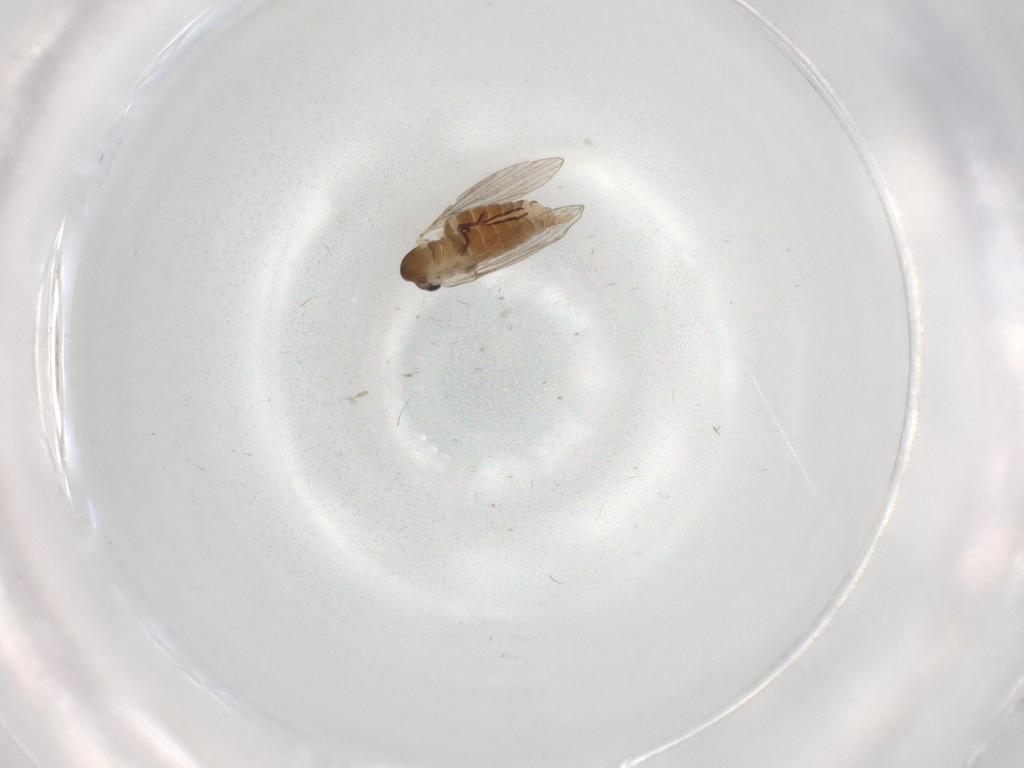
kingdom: Animalia
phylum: Arthropoda
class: Insecta
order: Diptera
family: Psychodidae
